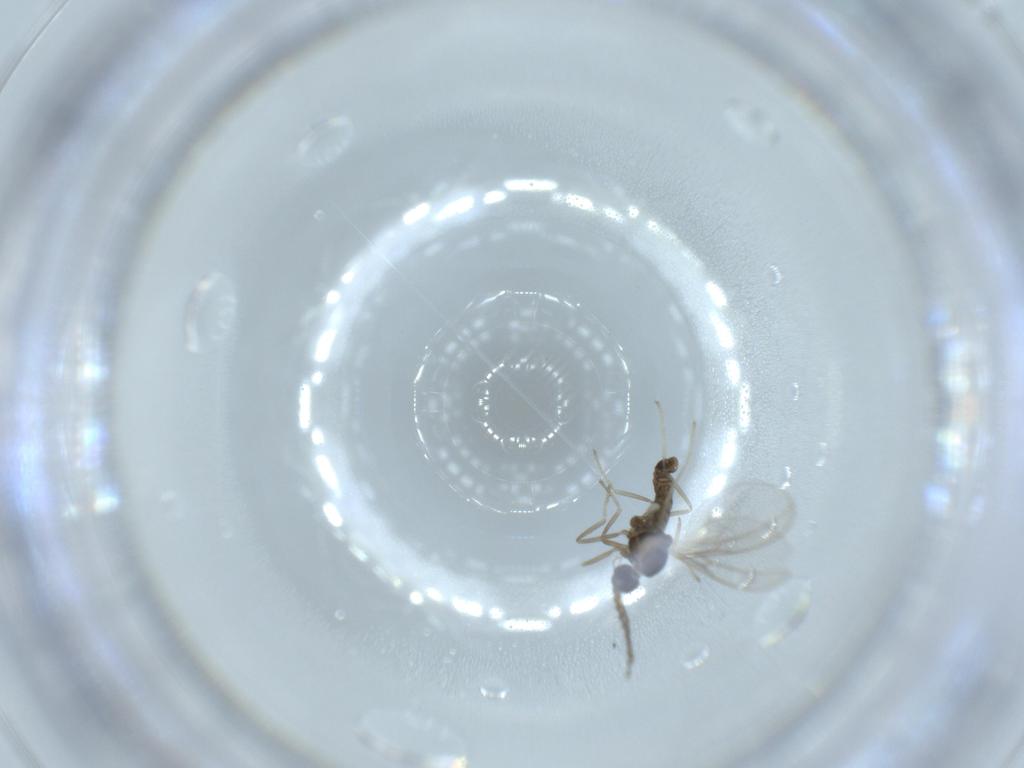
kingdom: Animalia
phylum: Arthropoda
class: Insecta
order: Diptera
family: Cecidomyiidae
